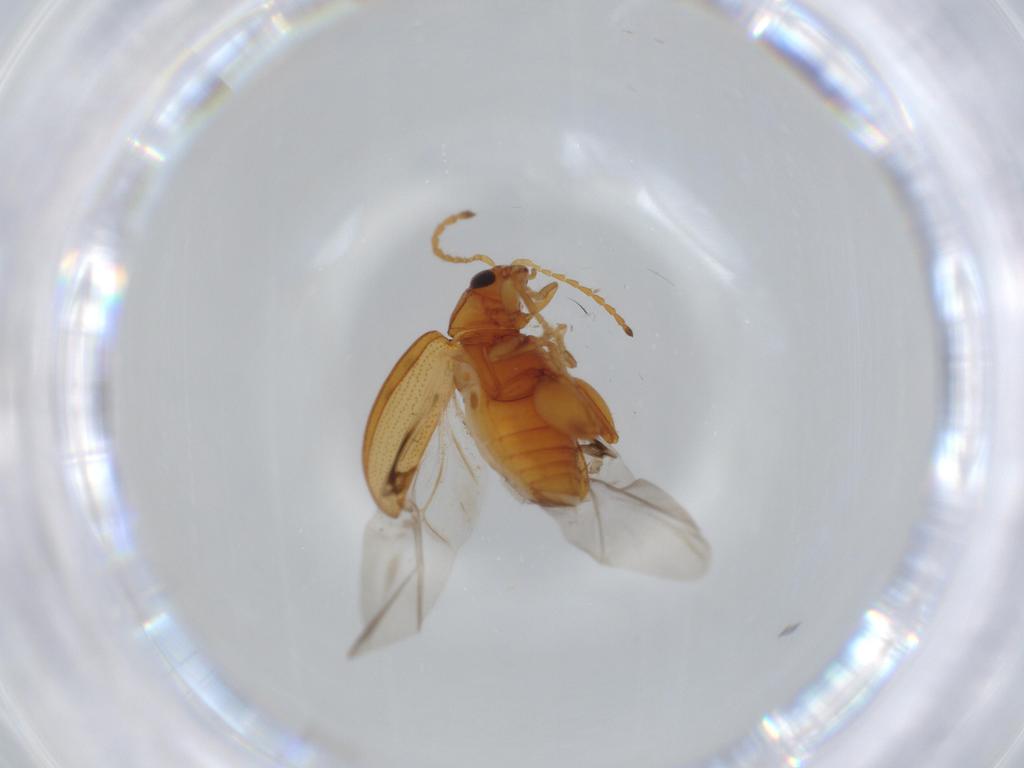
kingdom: Animalia
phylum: Arthropoda
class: Insecta
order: Coleoptera
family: Chrysomelidae
